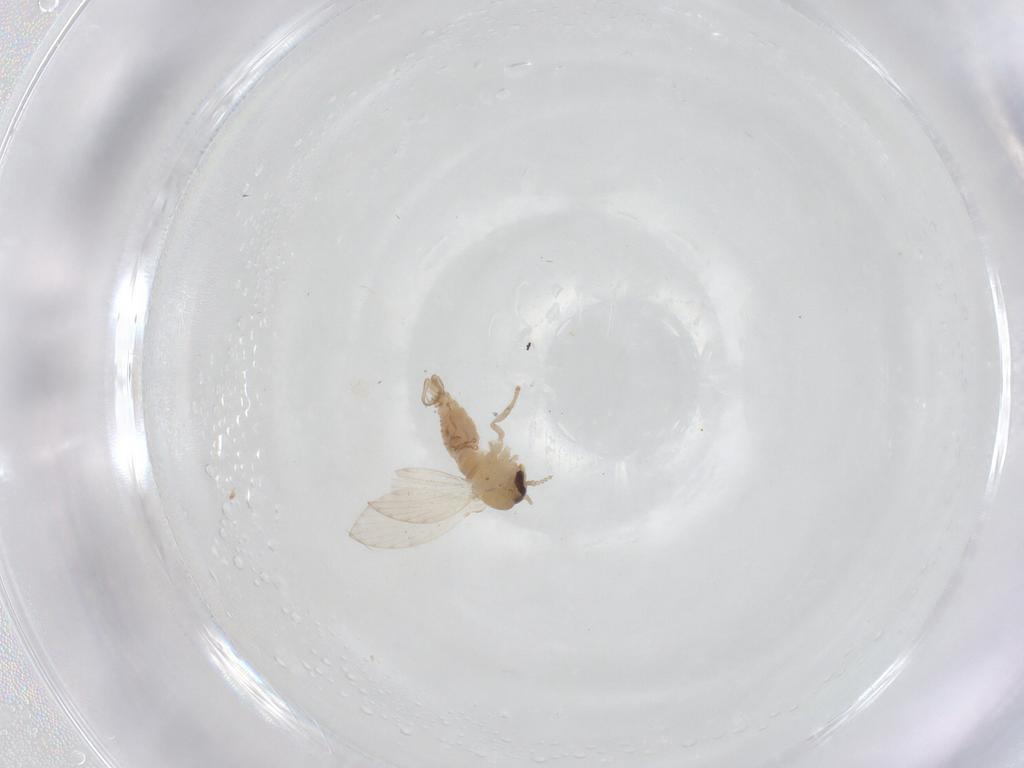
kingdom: Animalia
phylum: Arthropoda
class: Insecta
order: Diptera
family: Psychodidae
